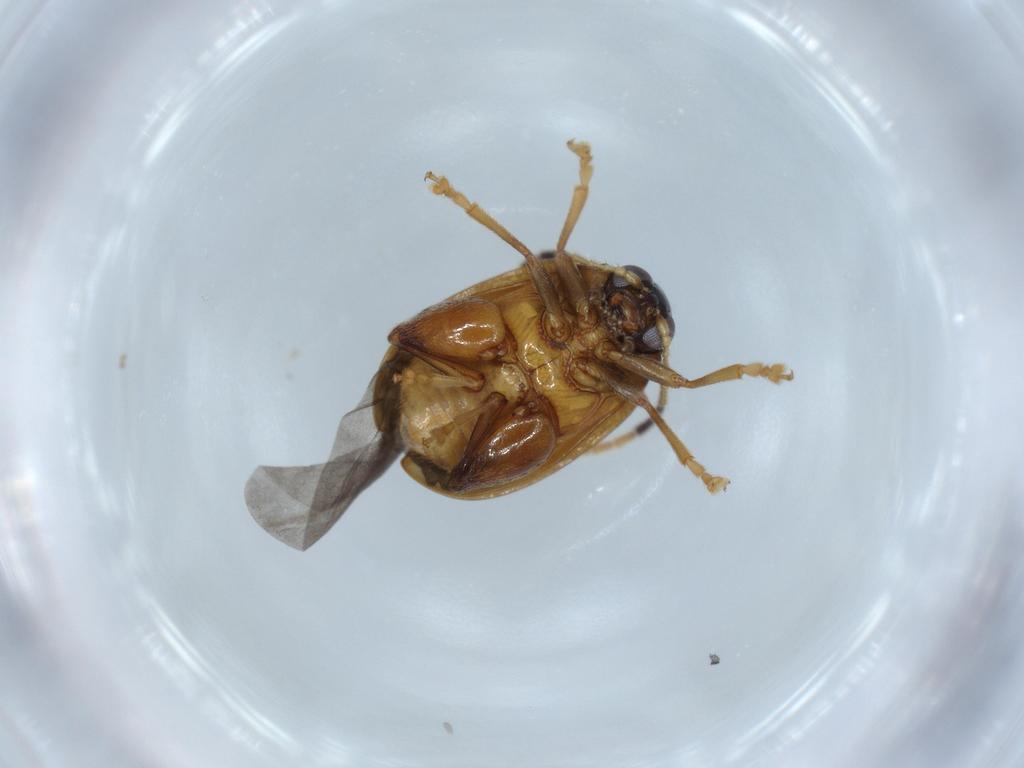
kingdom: Animalia
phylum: Arthropoda
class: Insecta
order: Coleoptera
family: Chrysomelidae
